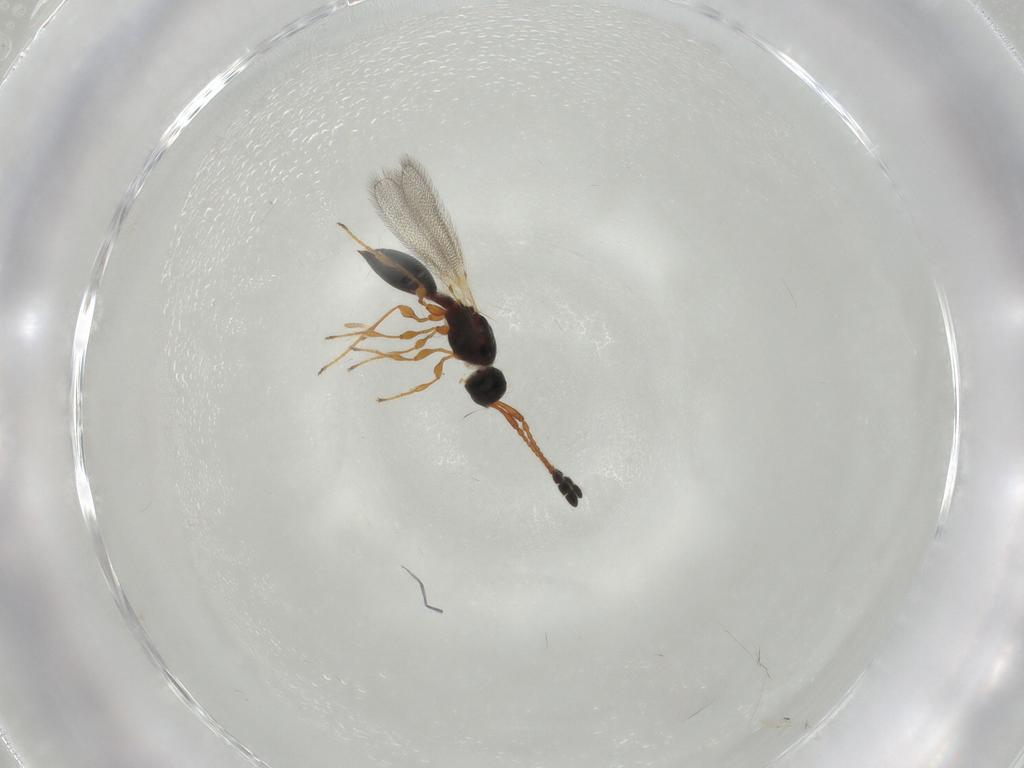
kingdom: Animalia
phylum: Arthropoda
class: Insecta
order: Hymenoptera
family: Diapriidae
